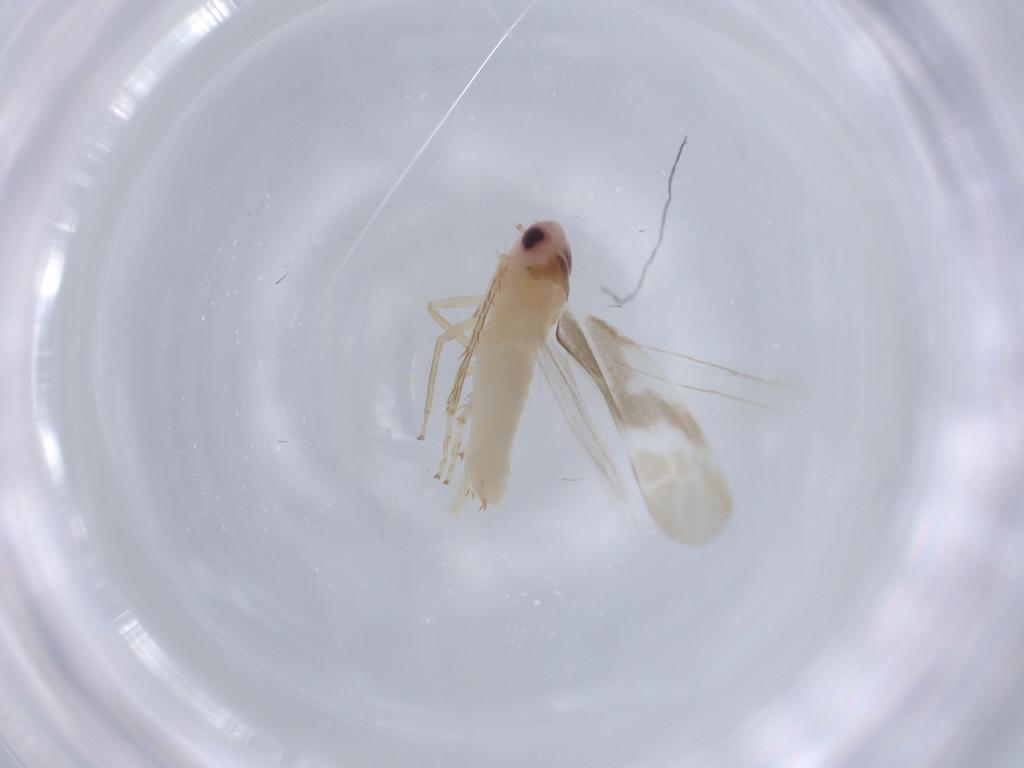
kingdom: Animalia
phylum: Arthropoda
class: Insecta
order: Hemiptera
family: Cicadellidae
